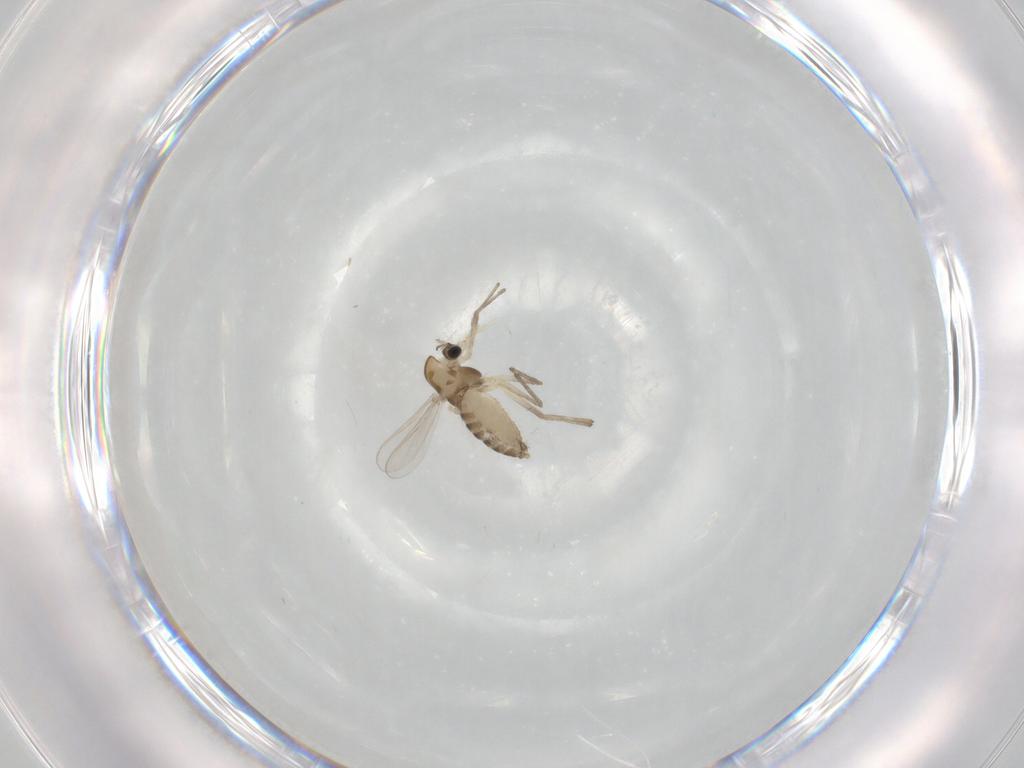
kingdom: Animalia
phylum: Arthropoda
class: Insecta
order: Diptera
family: Chironomidae
